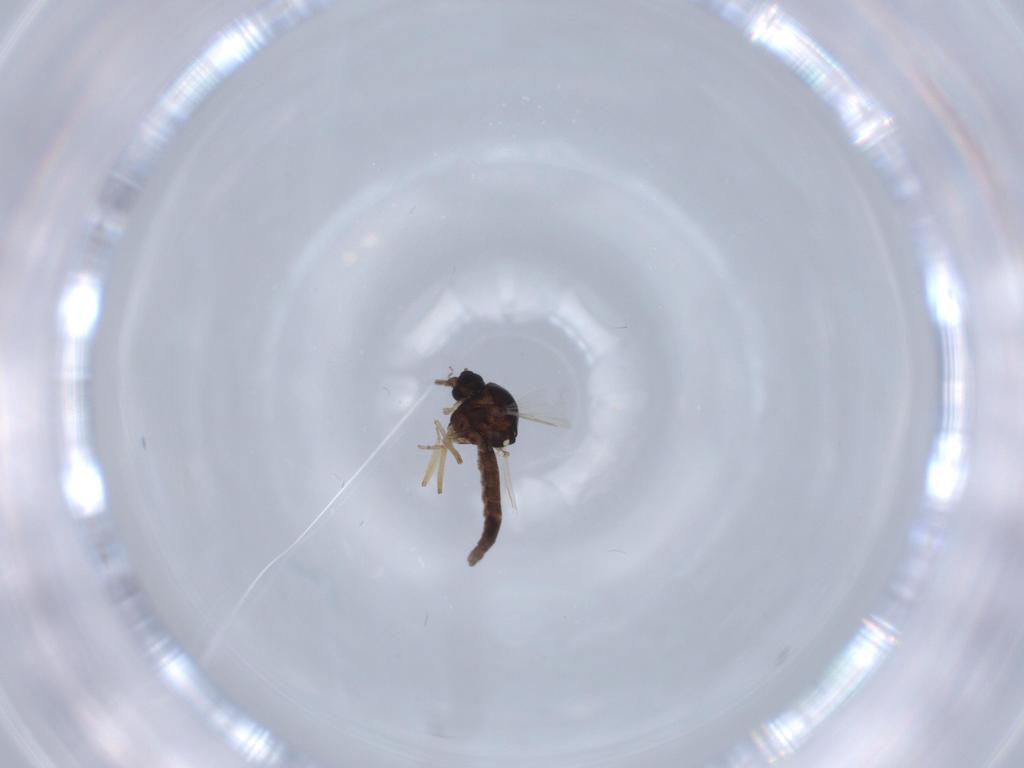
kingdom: Animalia
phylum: Arthropoda
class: Insecta
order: Diptera
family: Ceratopogonidae
